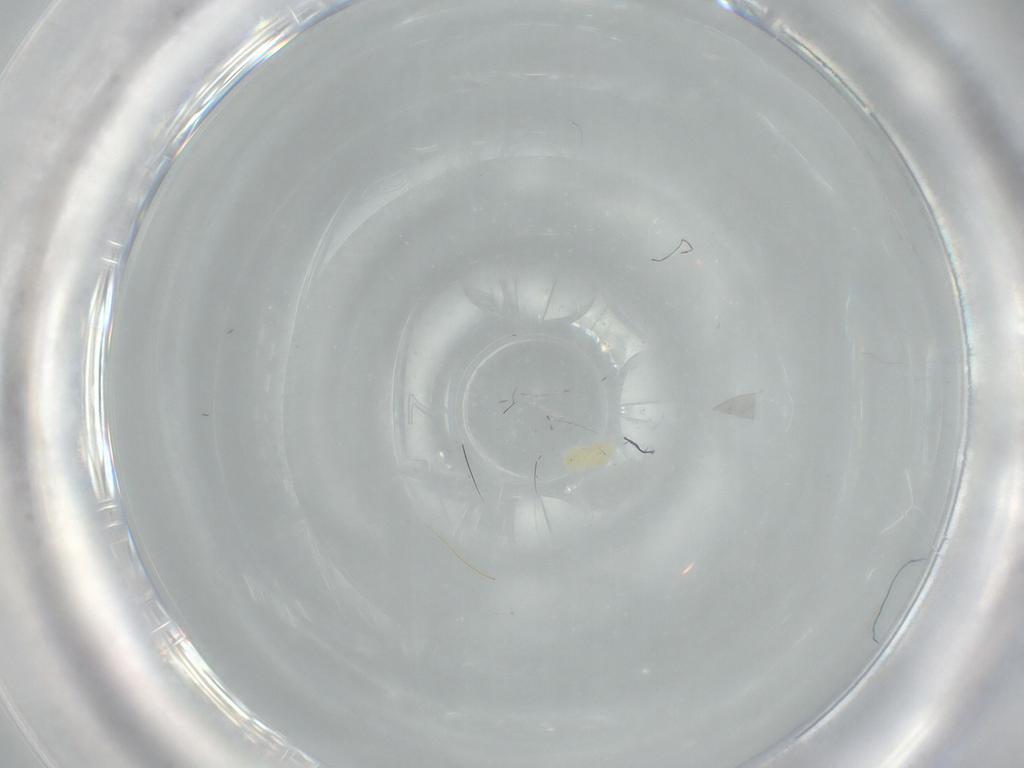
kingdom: Animalia
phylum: Arthropoda
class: Arachnida
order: Trombidiformes
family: Eupodidae
